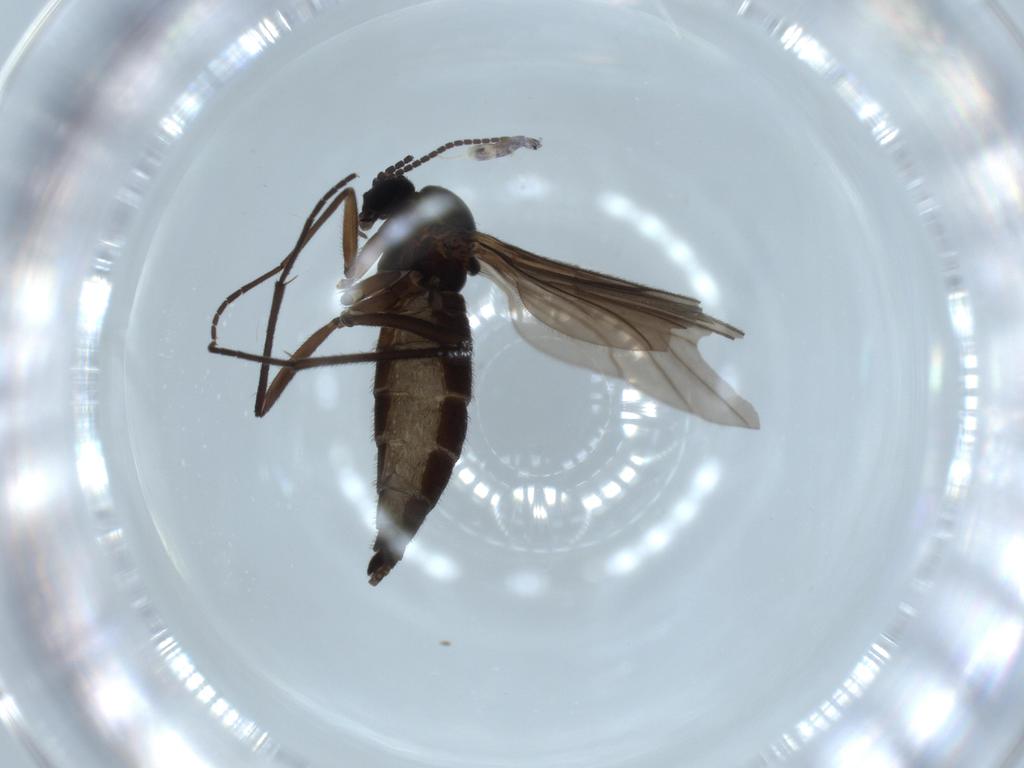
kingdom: Animalia
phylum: Arthropoda
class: Insecta
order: Diptera
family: Sciaridae
